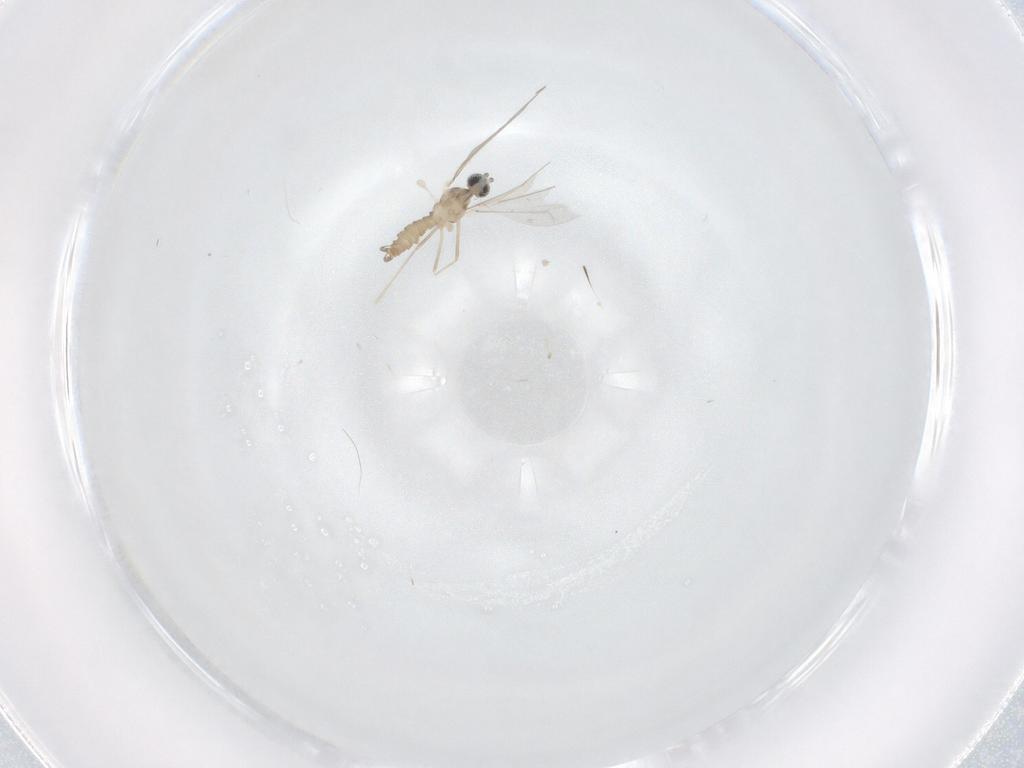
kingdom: Animalia
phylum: Arthropoda
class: Insecta
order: Diptera
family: Cecidomyiidae
